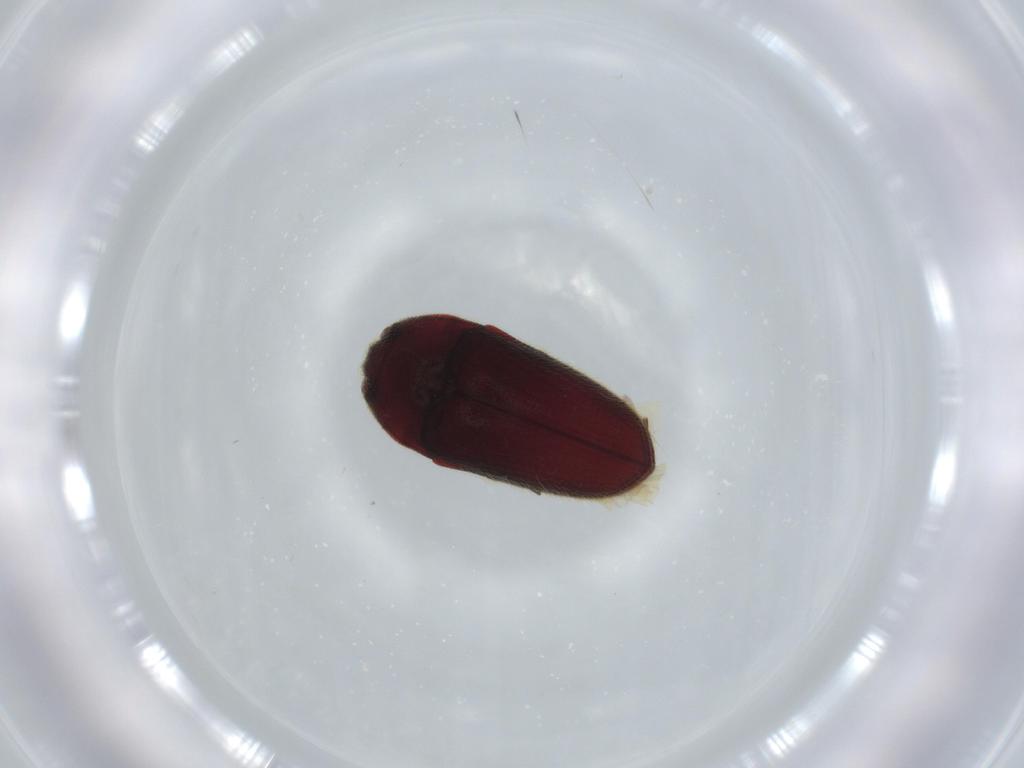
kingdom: Animalia
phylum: Arthropoda
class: Insecta
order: Coleoptera
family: Throscidae
